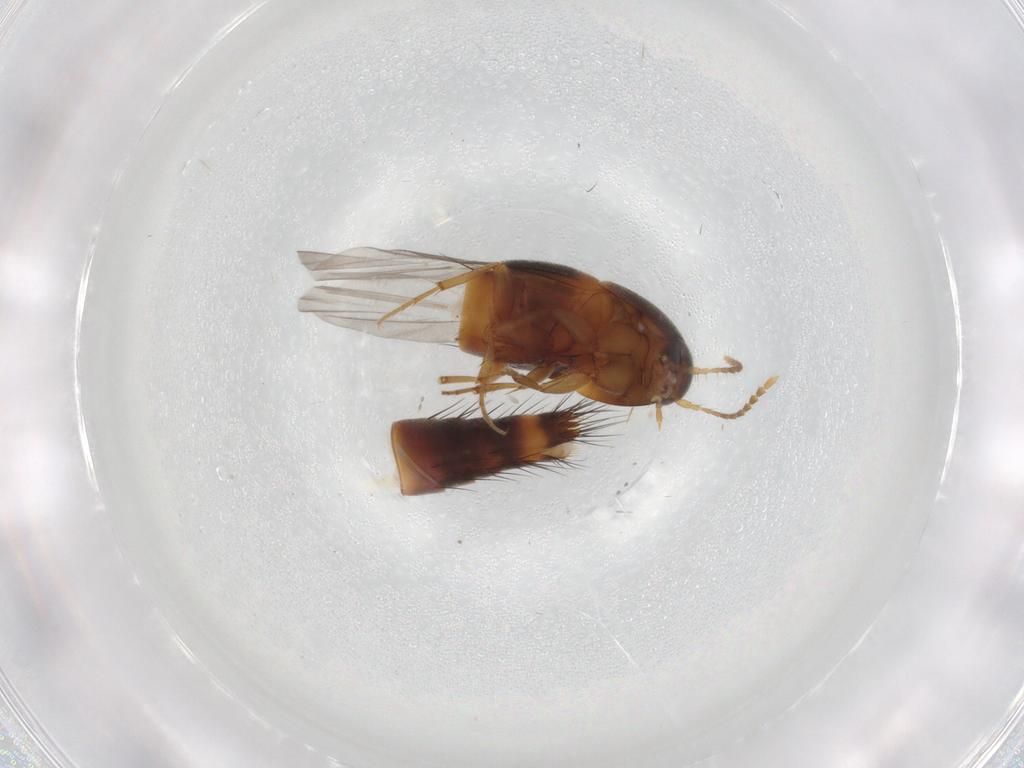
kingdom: Animalia
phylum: Arthropoda
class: Insecta
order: Coleoptera
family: Staphylinidae
